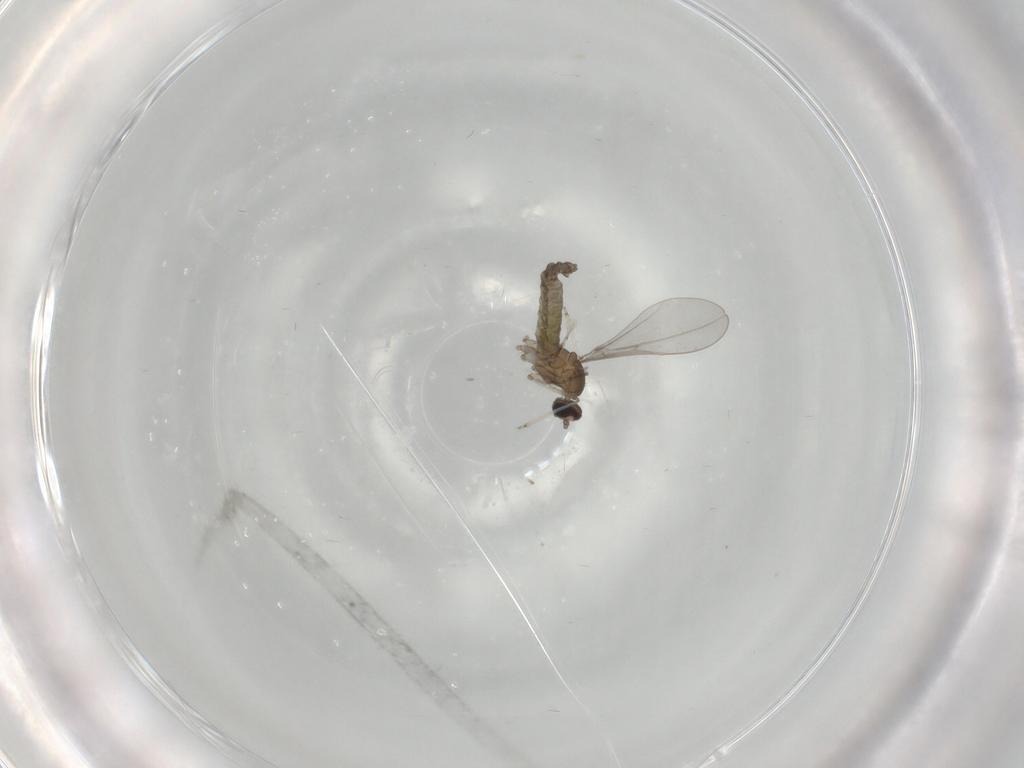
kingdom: Animalia
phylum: Arthropoda
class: Insecta
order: Diptera
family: Cecidomyiidae
